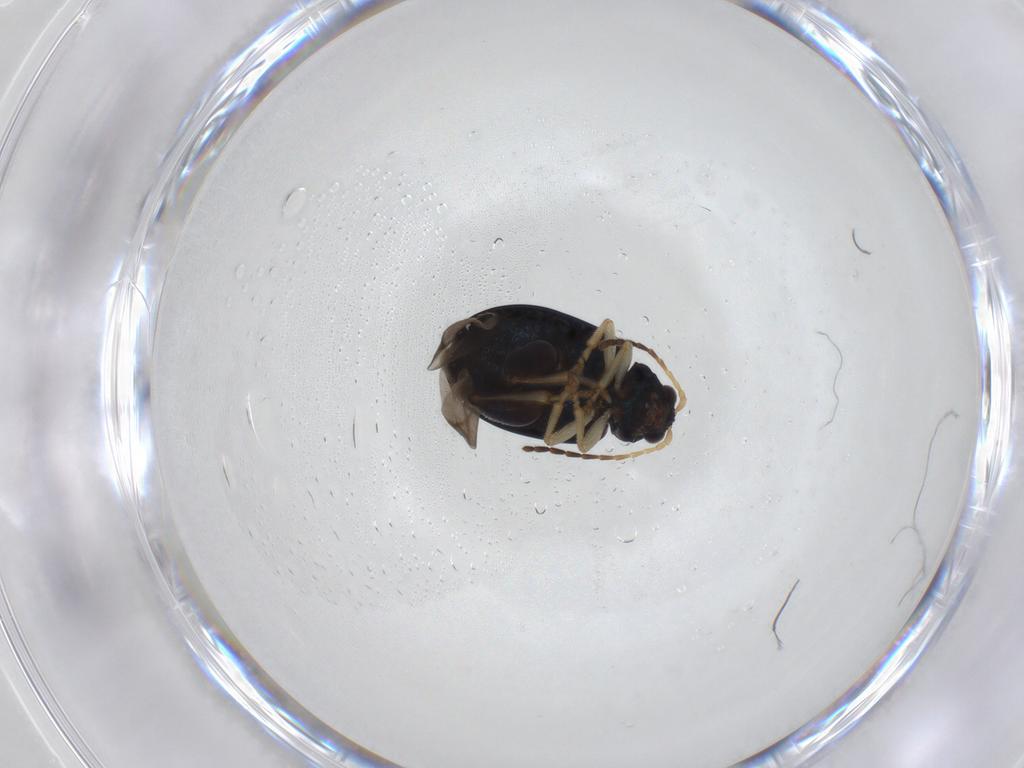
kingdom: Animalia
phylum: Arthropoda
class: Insecta
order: Coleoptera
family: Chrysomelidae
